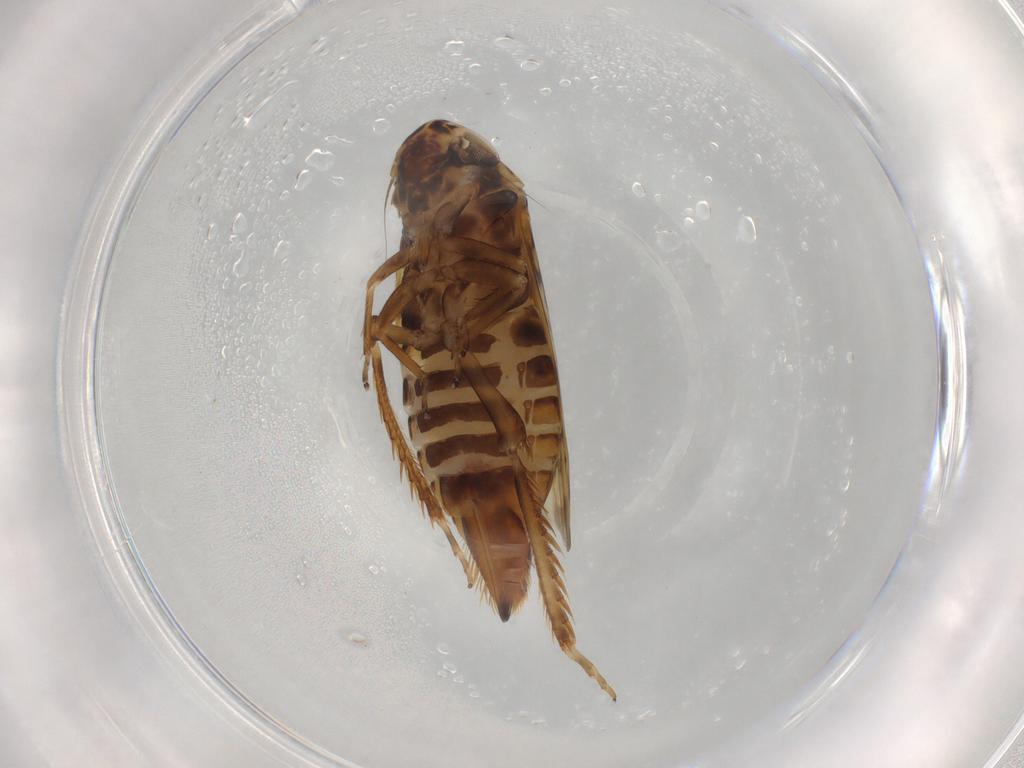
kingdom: Animalia
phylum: Arthropoda
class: Insecta
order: Hemiptera
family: Cicadellidae
